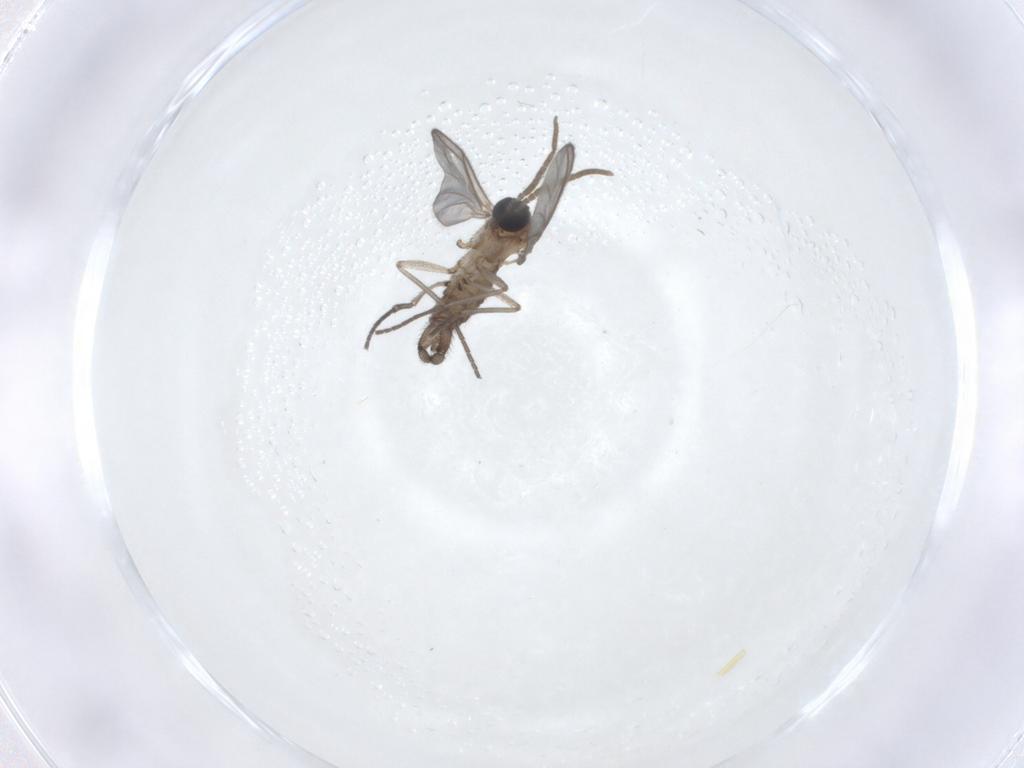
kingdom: Animalia
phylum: Arthropoda
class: Insecta
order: Diptera
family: Cecidomyiidae
